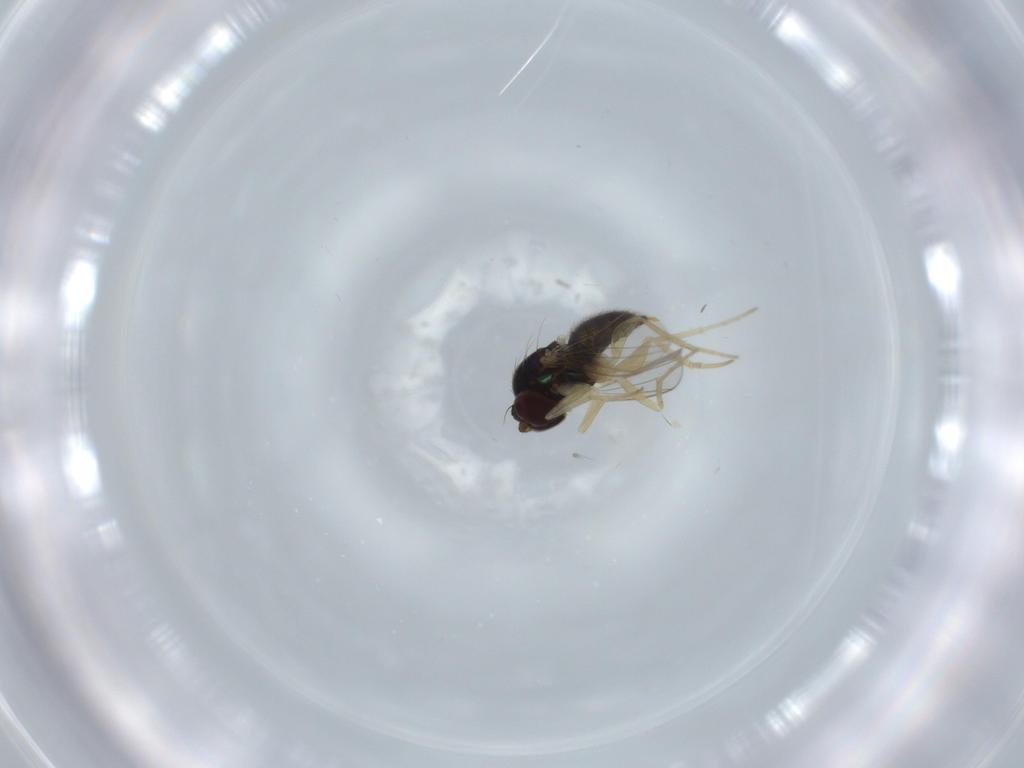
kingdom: Animalia
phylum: Arthropoda
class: Insecta
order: Diptera
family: Dolichopodidae
